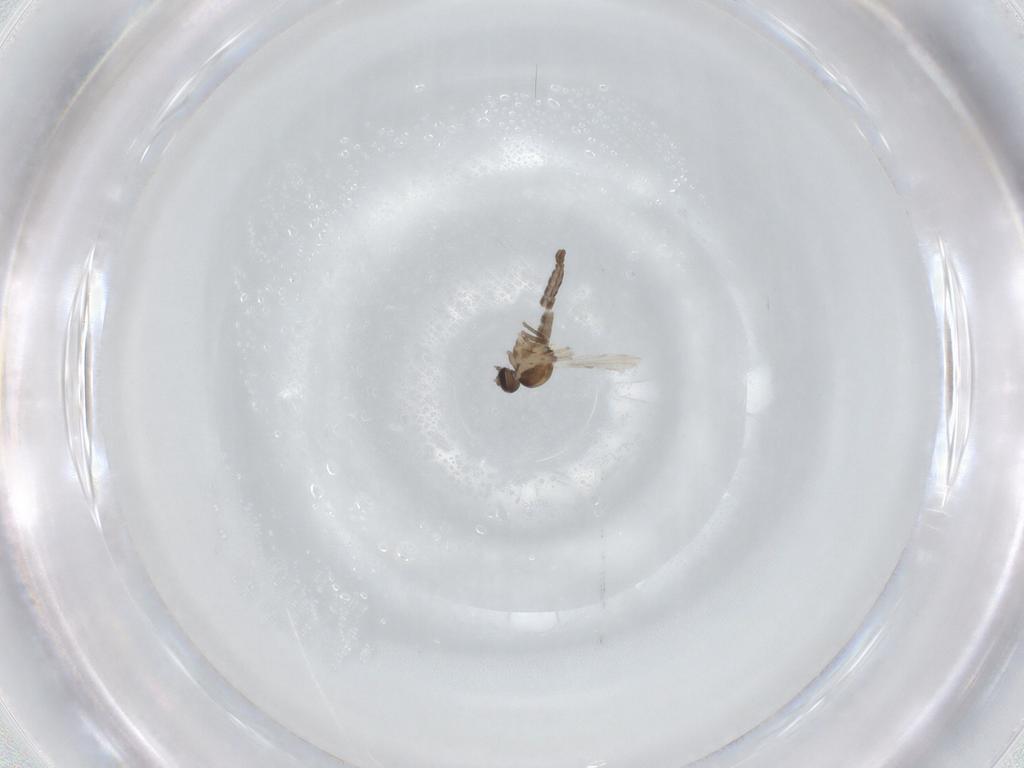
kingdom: Animalia
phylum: Arthropoda
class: Insecta
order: Diptera
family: Ceratopogonidae
